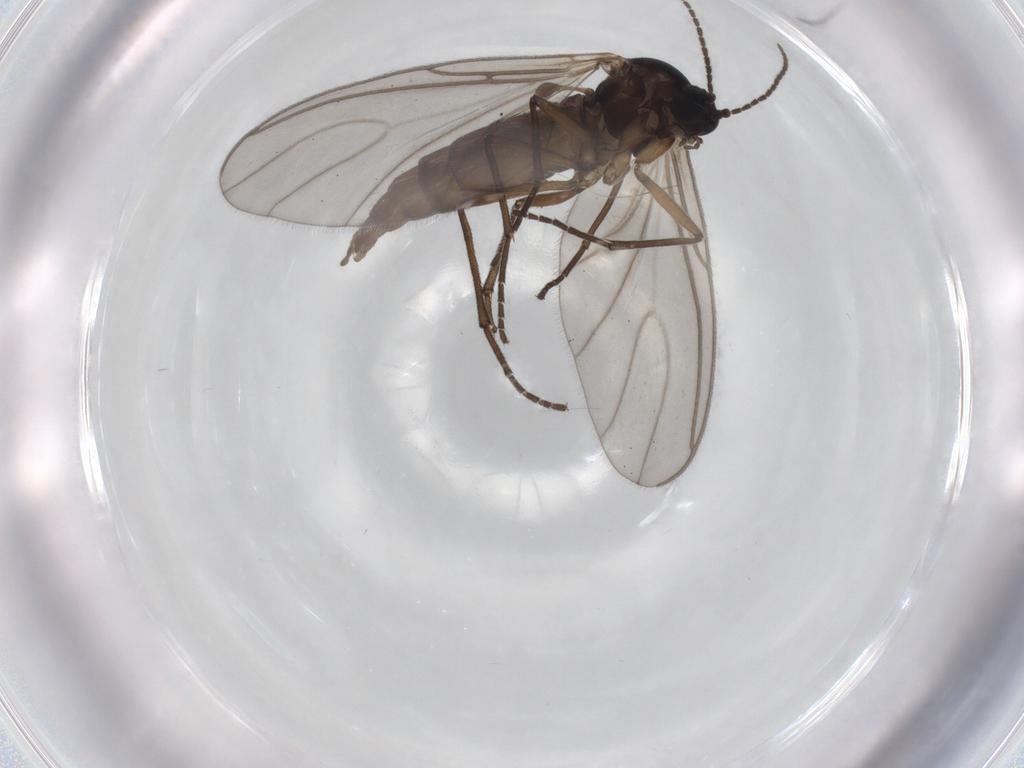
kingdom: Animalia
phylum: Arthropoda
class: Insecta
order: Diptera
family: Sciaridae
